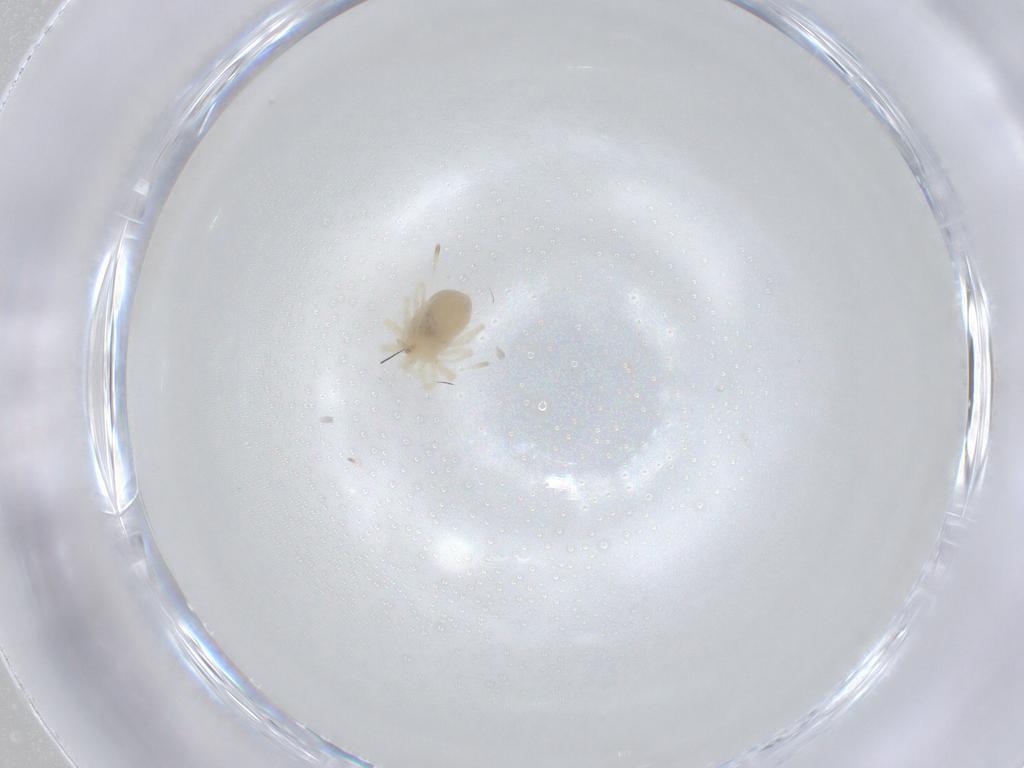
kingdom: Animalia
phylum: Arthropoda
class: Arachnida
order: Trombidiformes
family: Anystidae
